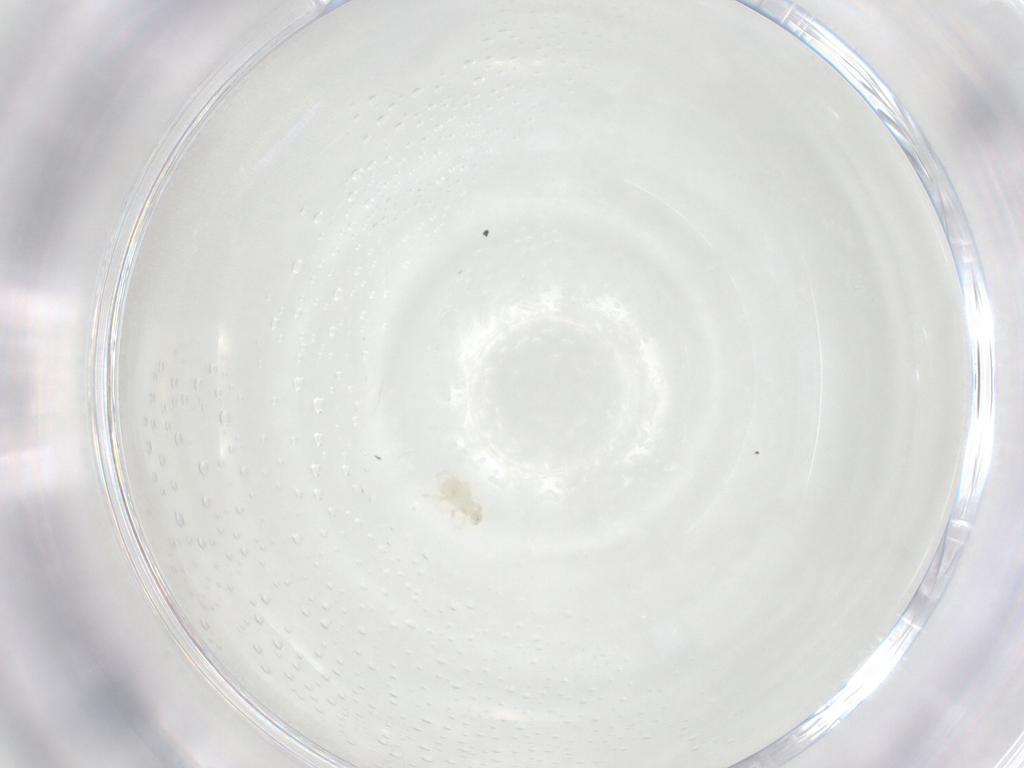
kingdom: Animalia
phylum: Arthropoda
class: Arachnida
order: Trombidiformes
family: Erythraeidae
